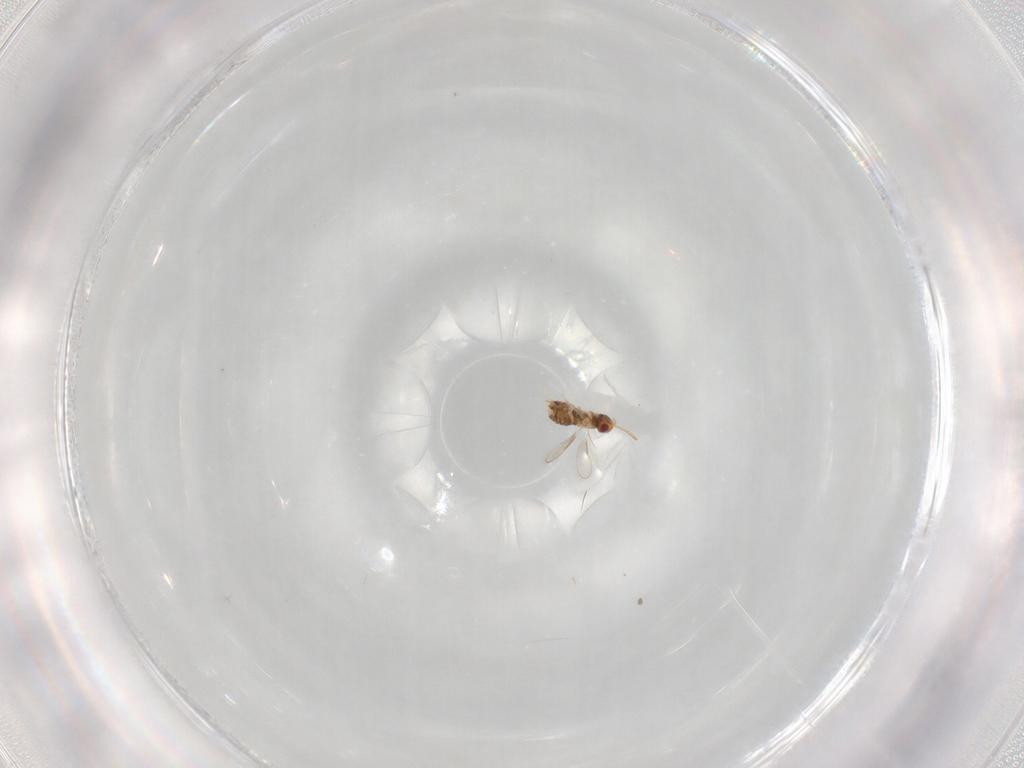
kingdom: Animalia
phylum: Arthropoda
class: Insecta
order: Hymenoptera
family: Aphelinidae
